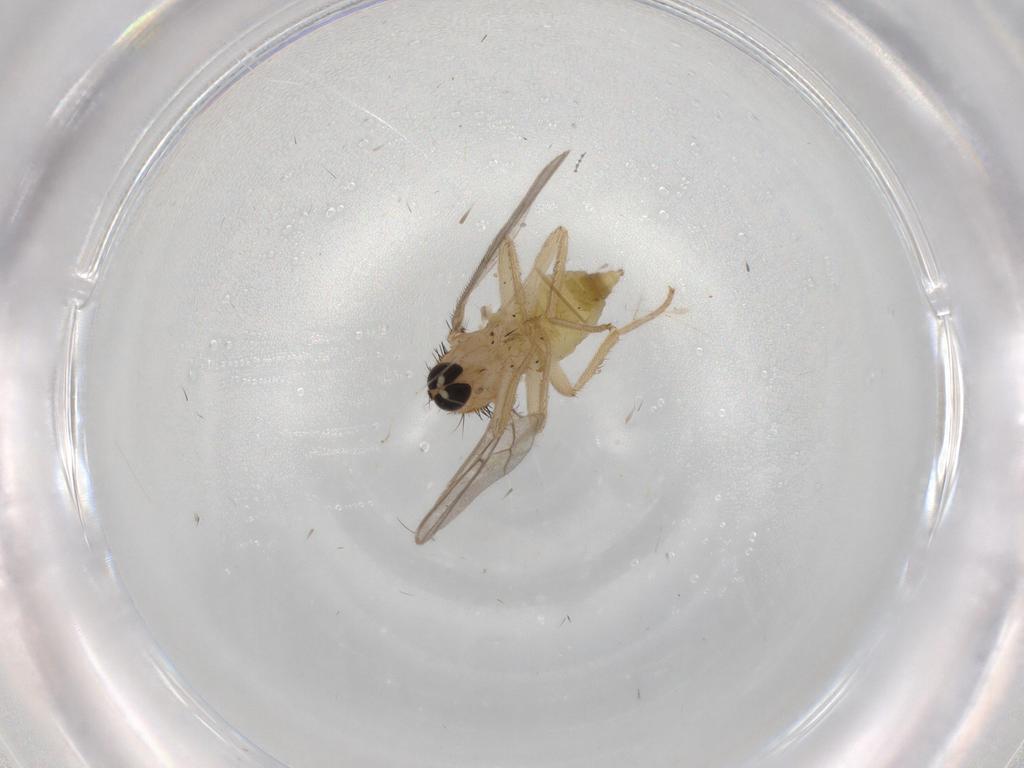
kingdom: Animalia
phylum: Arthropoda
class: Insecta
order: Diptera
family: Hybotidae
